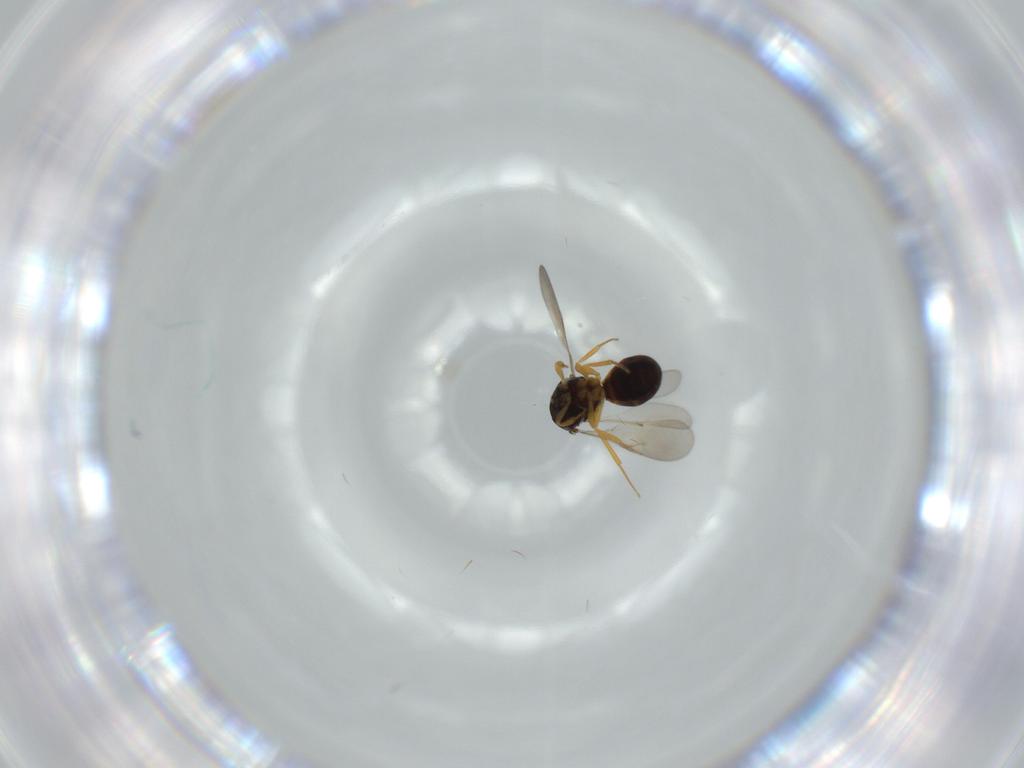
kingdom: Animalia
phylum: Arthropoda
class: Insecta
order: Hymenoptera
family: Scelionidae
